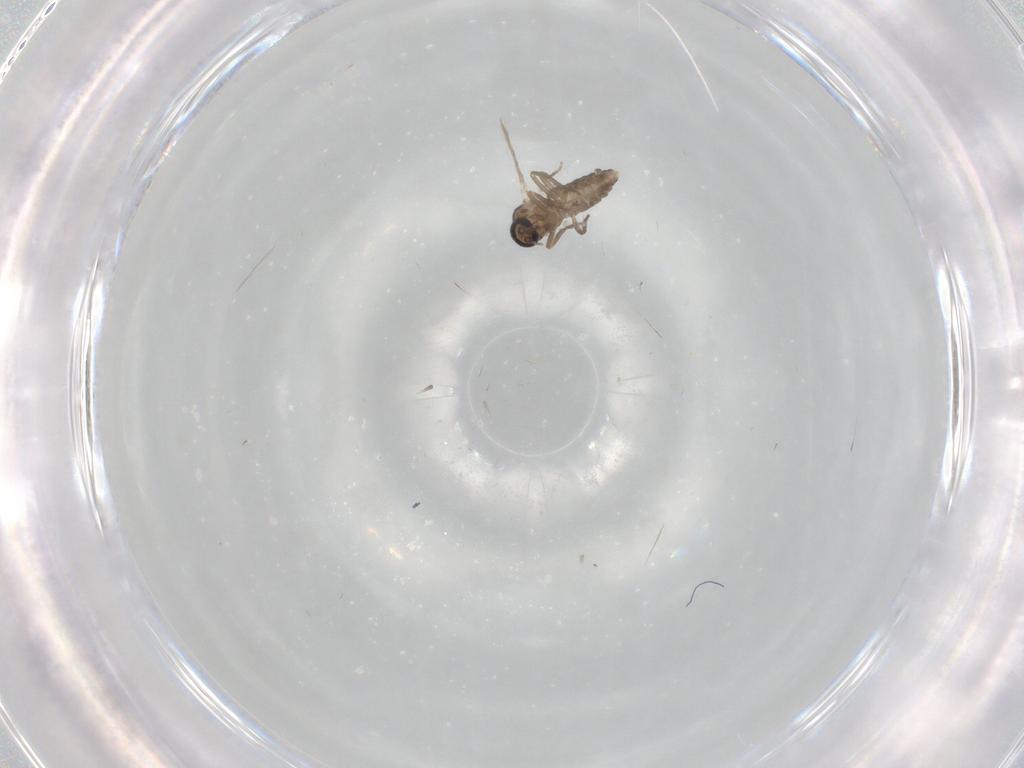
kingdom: Animalia
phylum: Arthropoda
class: Insecta
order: Diptera
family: Ceratopogonidae
